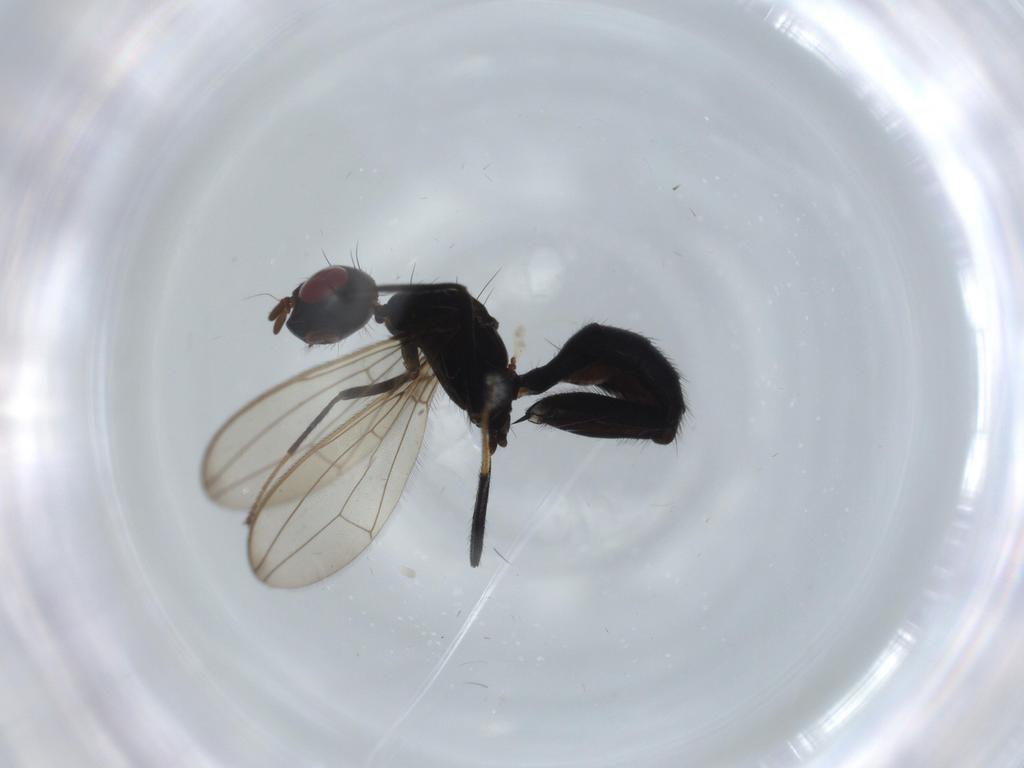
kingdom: Animalia
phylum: Arthropoda
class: Insecta
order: Diptera
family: Richardiidae
